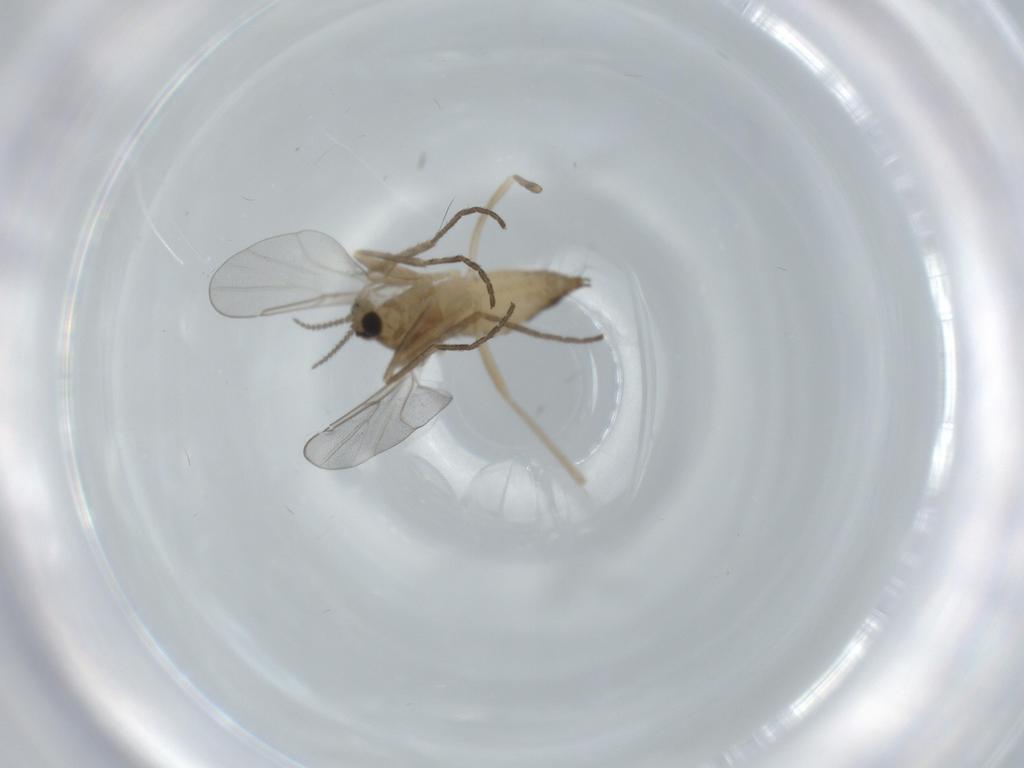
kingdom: Animalia
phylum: Arthropoda
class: Insecta
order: Diptera
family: Cecidomyiidae
